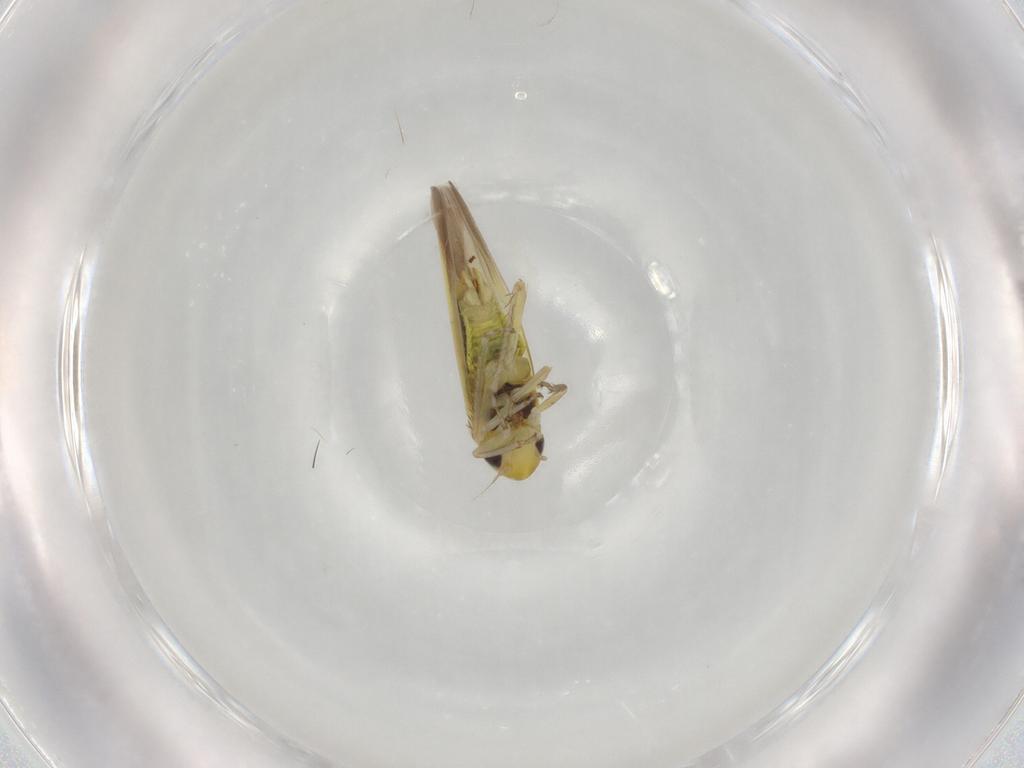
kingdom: Animalia
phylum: Arthropoda
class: Insecta
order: Hemiptera
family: Cicadellidae
